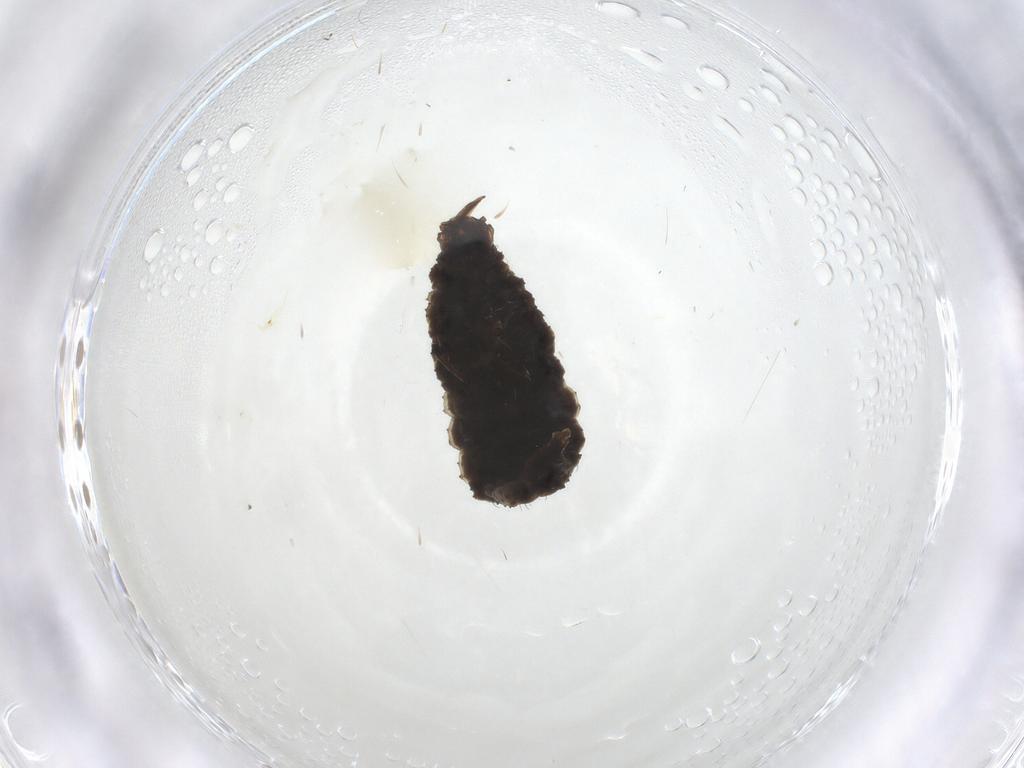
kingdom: Animalia
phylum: Arthropoda
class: Insecta
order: Neuroptera
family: Hemerobiidae
